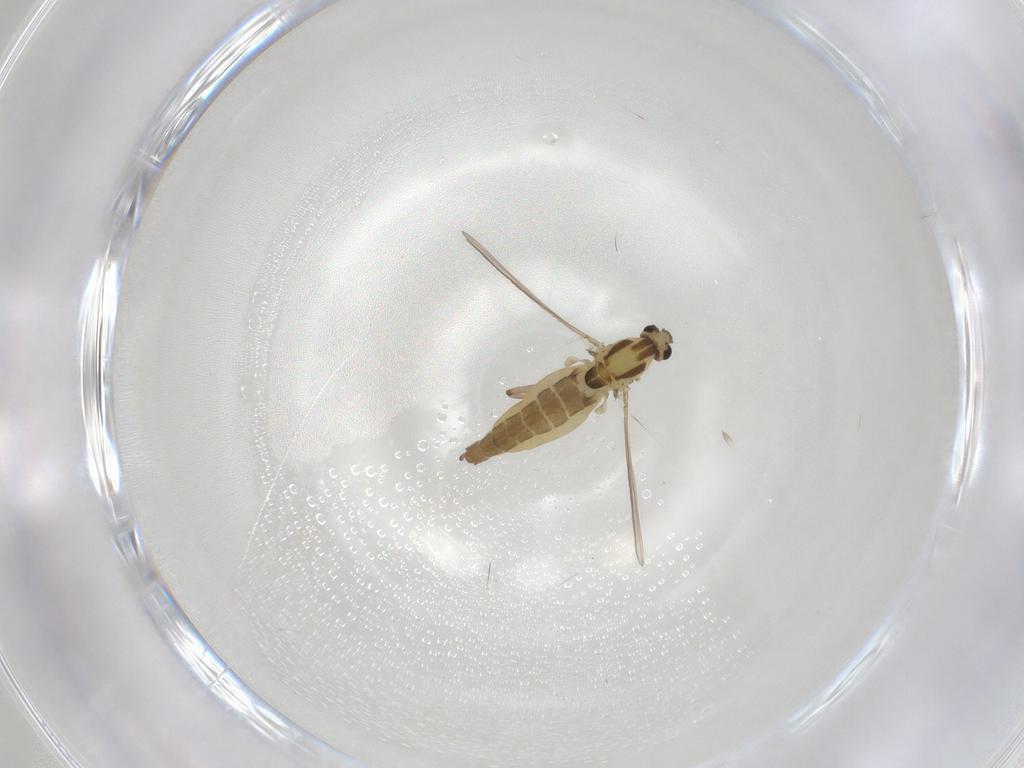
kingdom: Animalia
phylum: Arthropoda
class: Insecta
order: Diptera
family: Chironomidae
